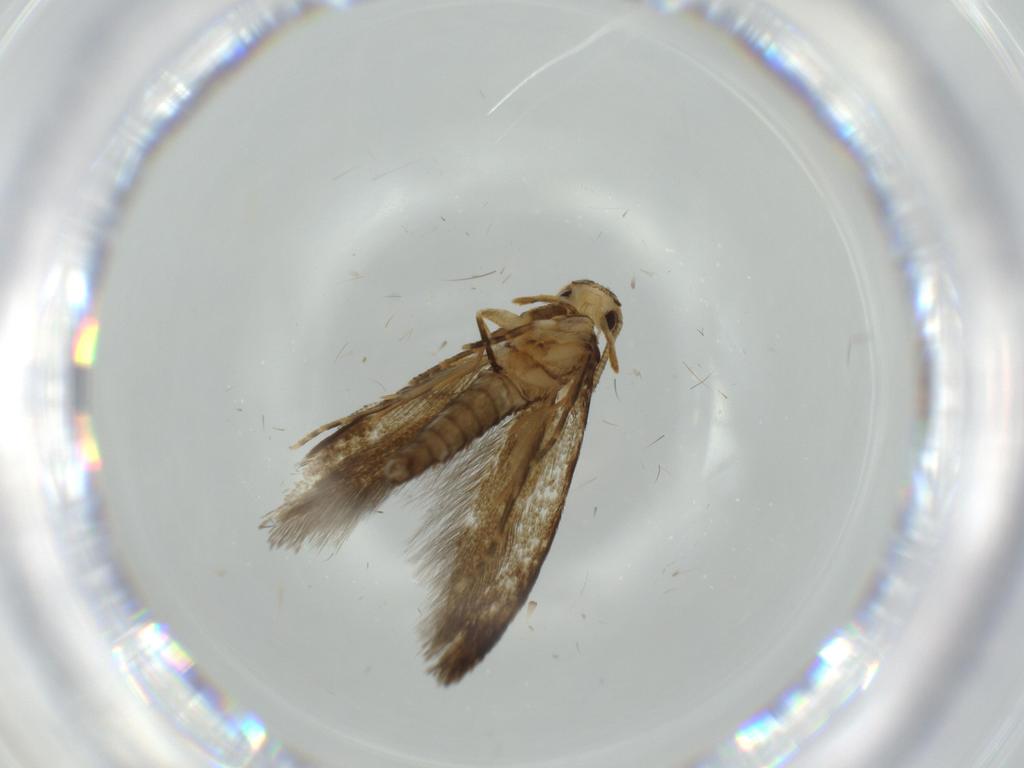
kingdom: Animalia
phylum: Arthropoda
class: Insecta
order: Lepidoptera
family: Tineidae
